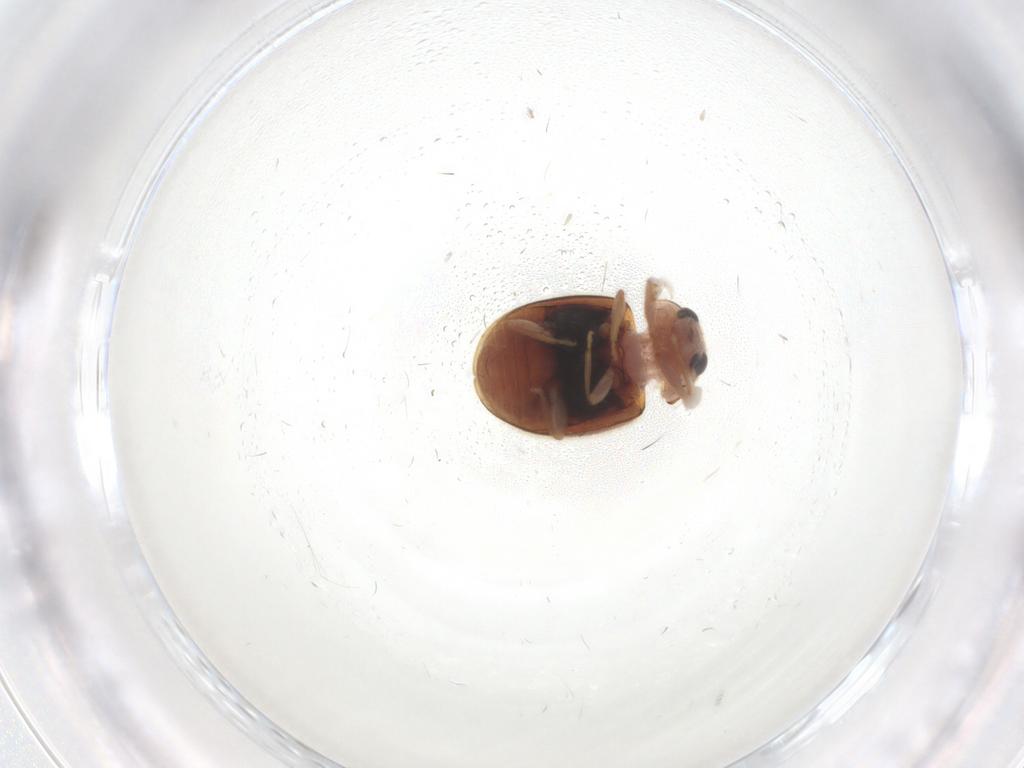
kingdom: Animalia
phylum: Arthropoda
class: Insecta
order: Coleoptera
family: Coccinellidae
